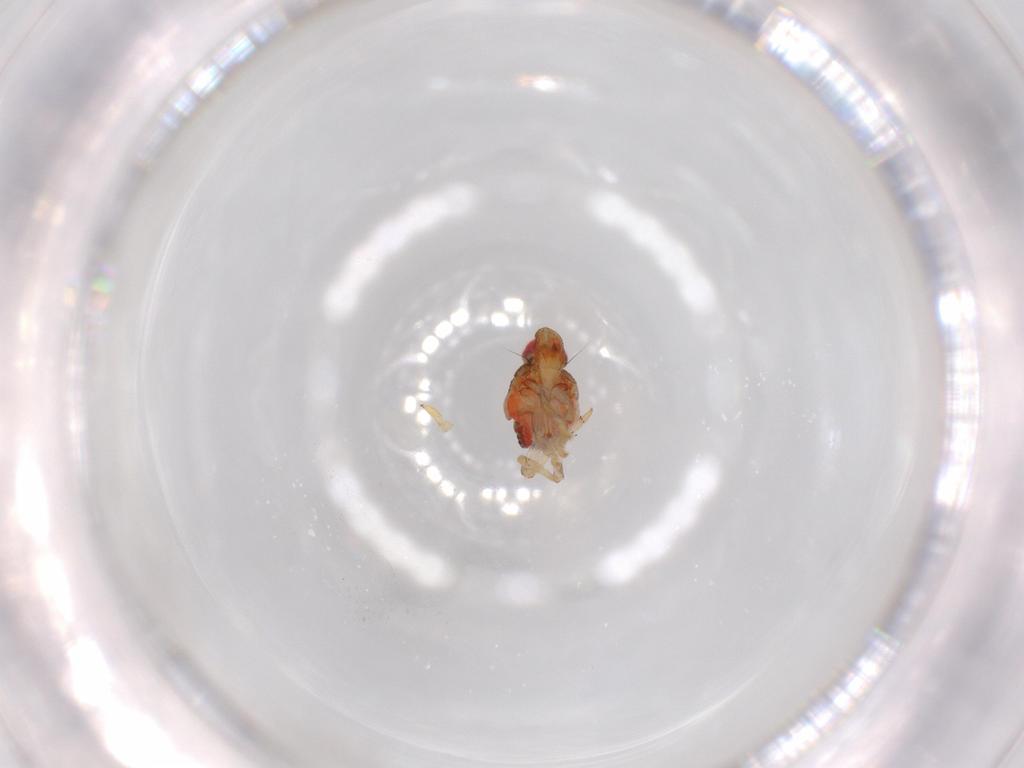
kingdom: Animalia
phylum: Arthropoda
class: Insecta
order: Hemiptera
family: Issidae
